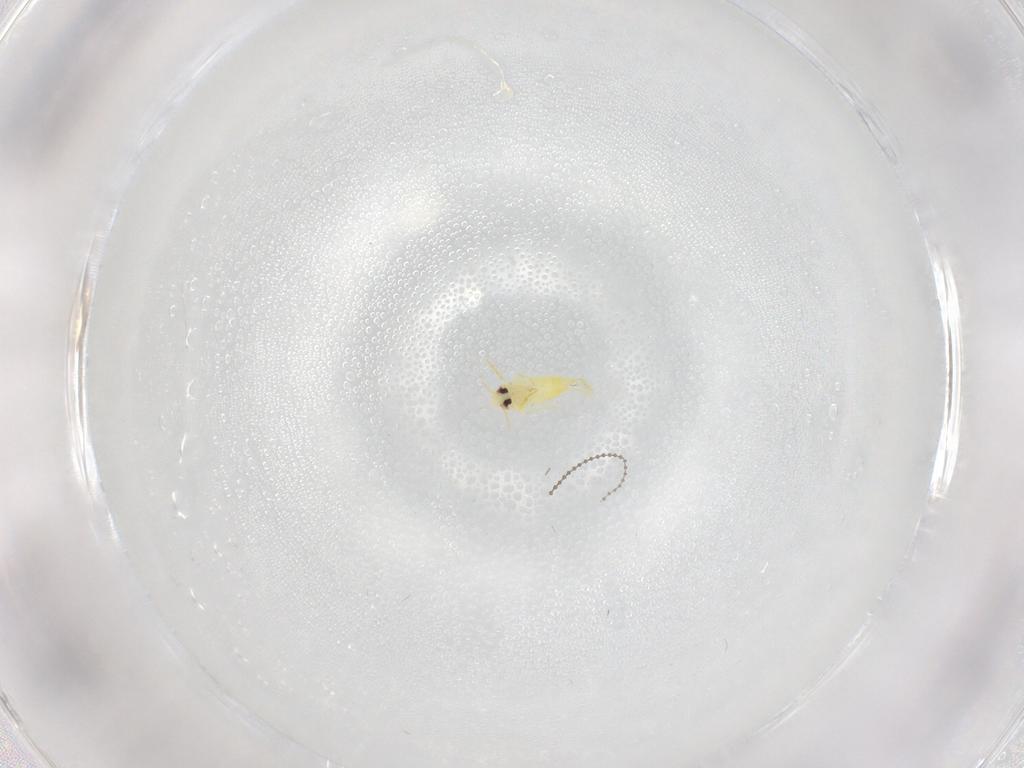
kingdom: Animalia
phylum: Arthropoda
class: Insecta
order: Hemiptera
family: Aleyrodidae
